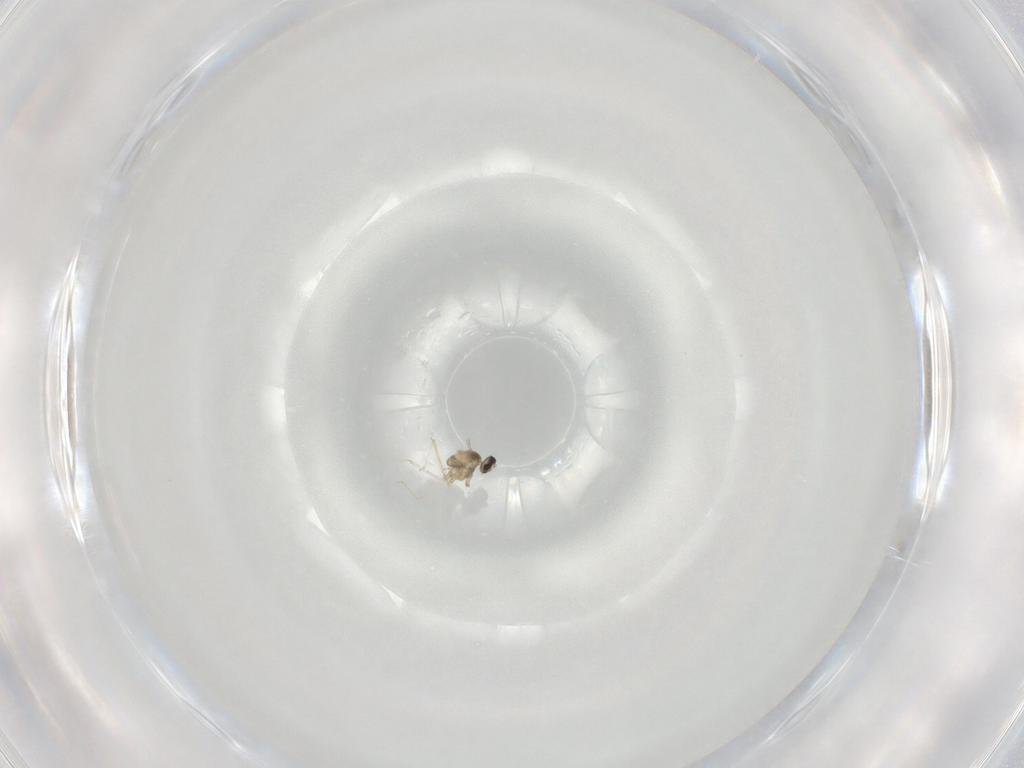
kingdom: Animalia
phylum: Arthropoda
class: Insecta
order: Diptera
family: Cecidomyiidae
